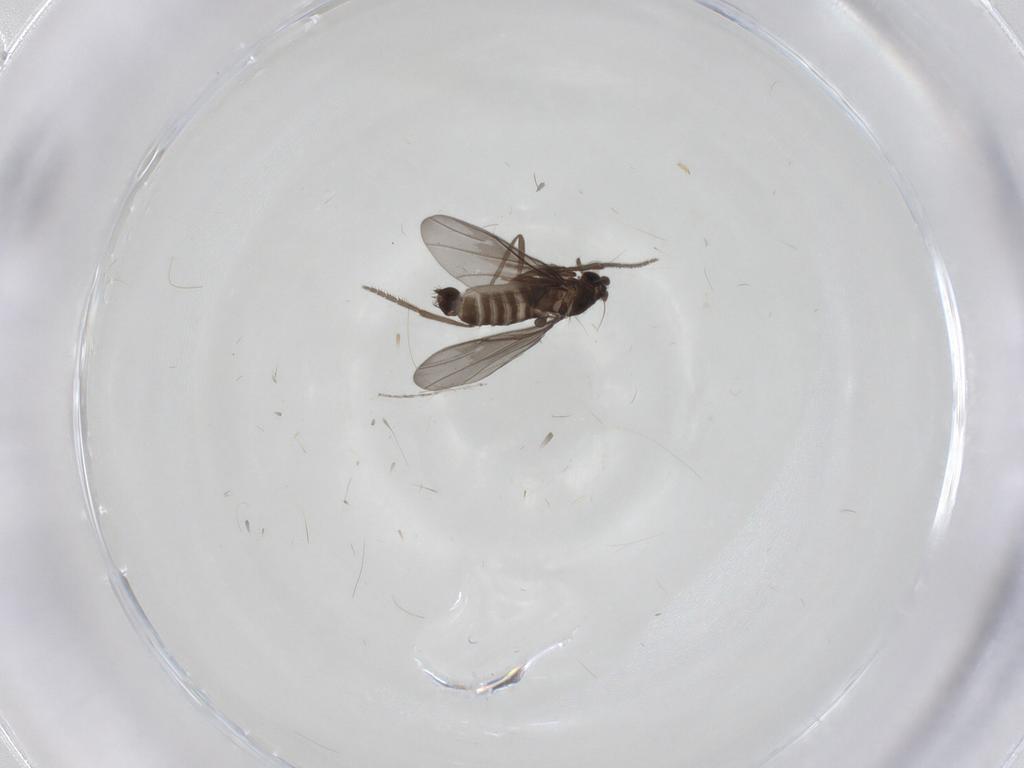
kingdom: Animalia
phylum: Arthropoda
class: Insecta
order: Diptera
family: Phoridae
